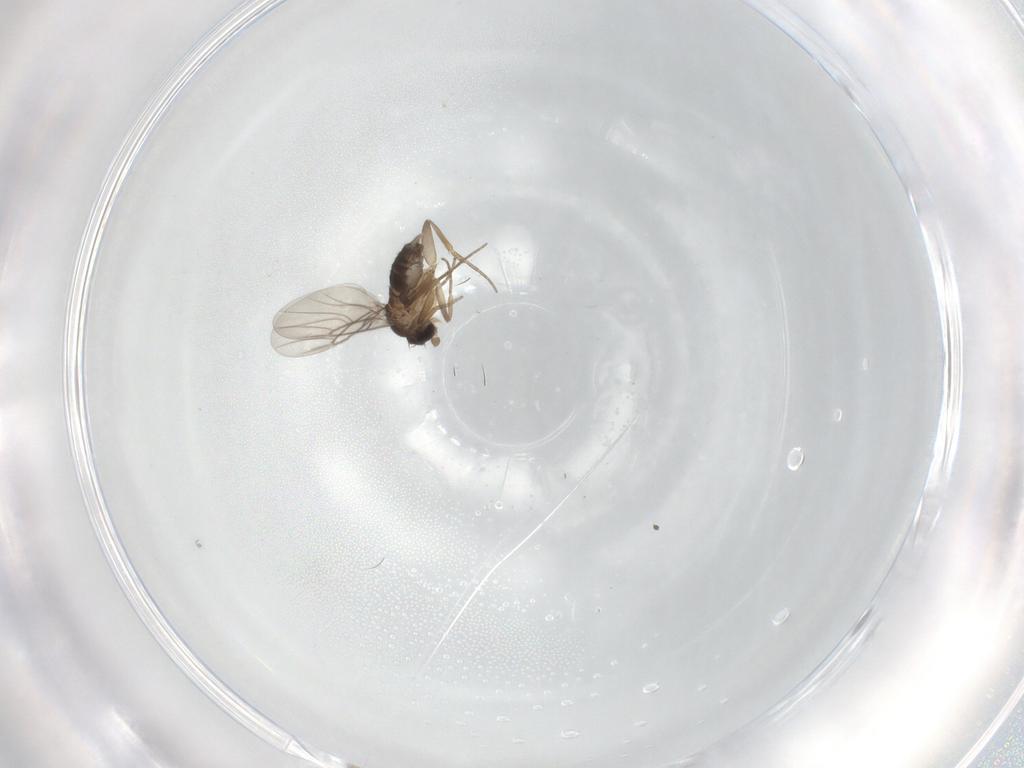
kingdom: Animalia
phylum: Arthropoda
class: Insecta
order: Diptera
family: Phoridae
